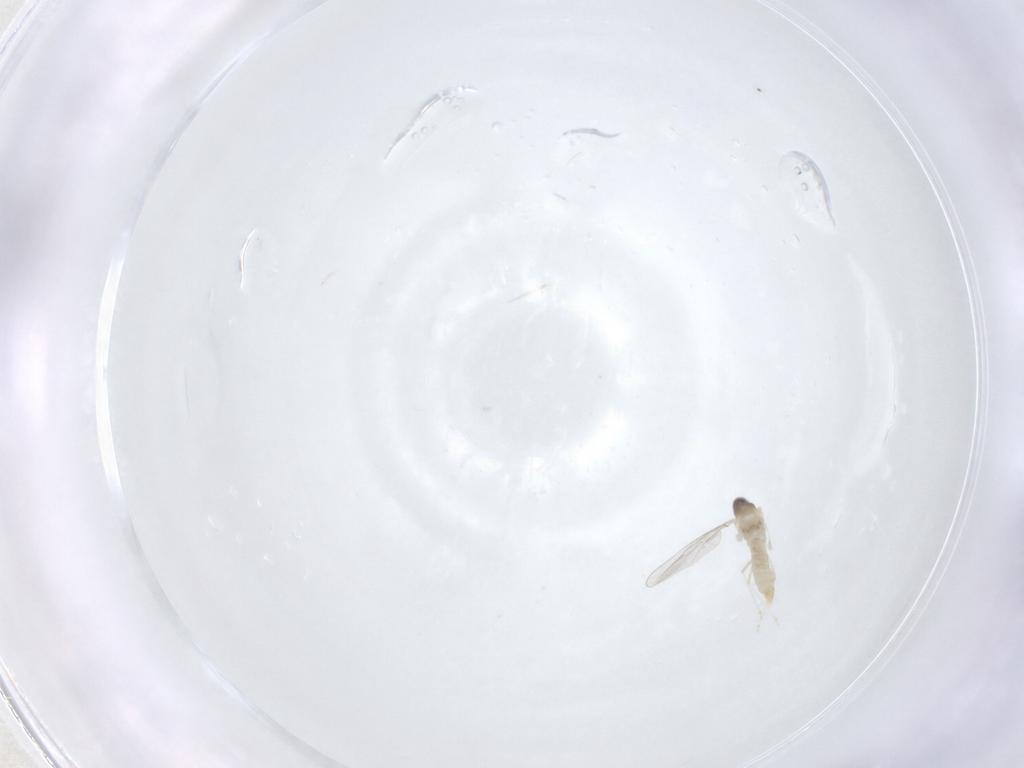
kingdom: Animalia
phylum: Arthropoda
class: Insecta
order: Diptera
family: Cecidomyiidae
